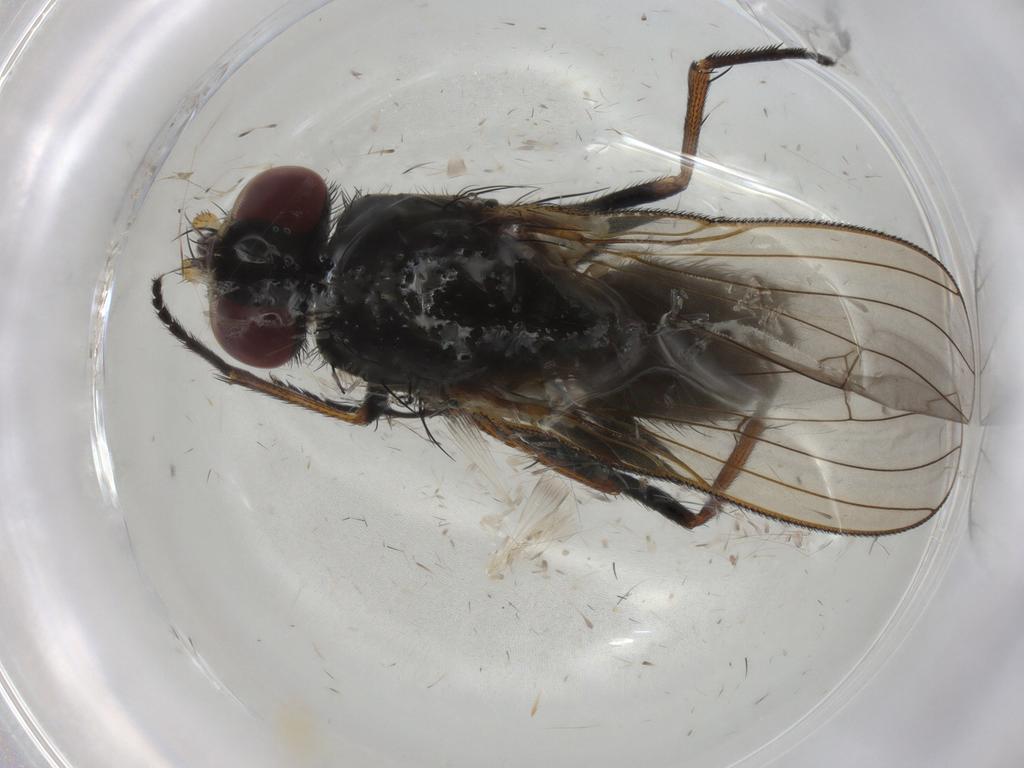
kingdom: Animalia
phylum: Arthropoda
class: Insecta
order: Diptera
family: Muscidae
